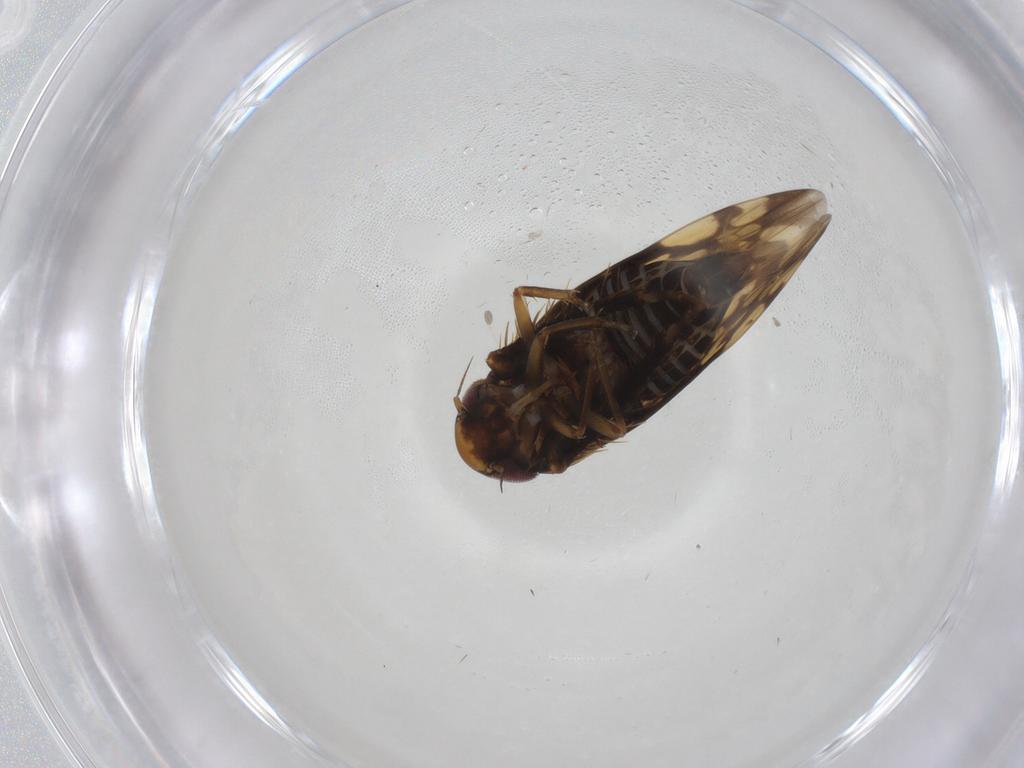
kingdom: Animalia
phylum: Arthropoda
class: Insecta
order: Hemiptera
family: Cicadellidae
